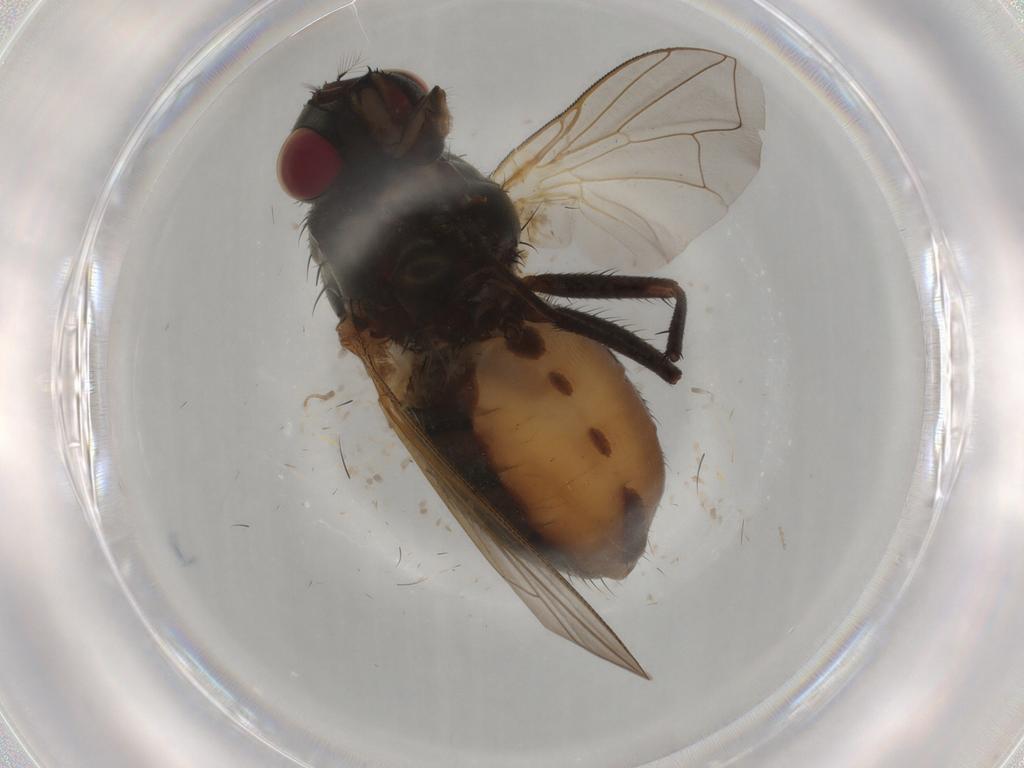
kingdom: Animalia
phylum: Arthropoda
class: Insecta
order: Diptera
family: Muscidae
